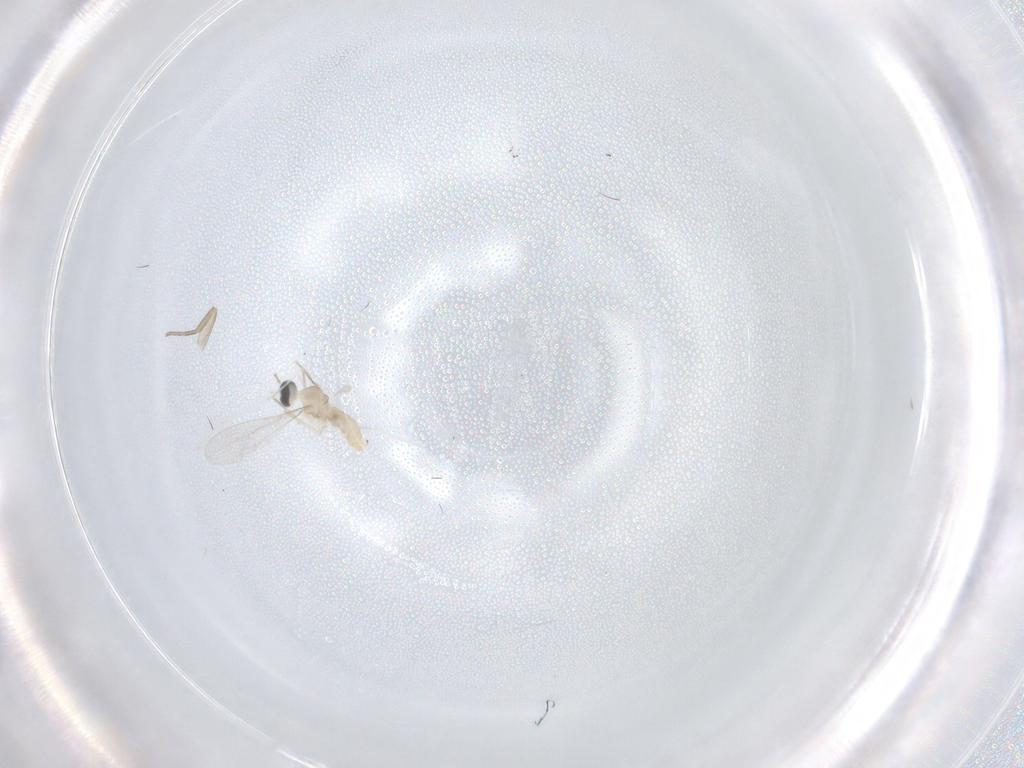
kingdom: Animalia
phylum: Arthropoda
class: Insecta
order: Diptera
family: Cecidomyiidae
